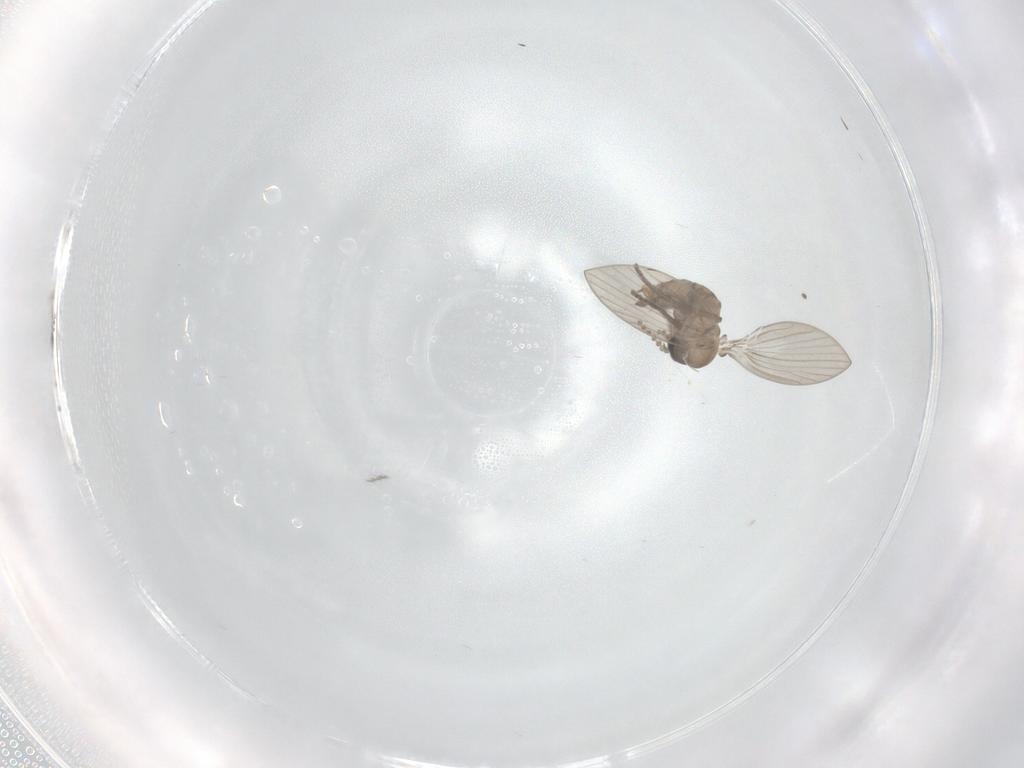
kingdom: Animalia
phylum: Arthropoda
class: Insecta
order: Diptera
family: Psychodidae
